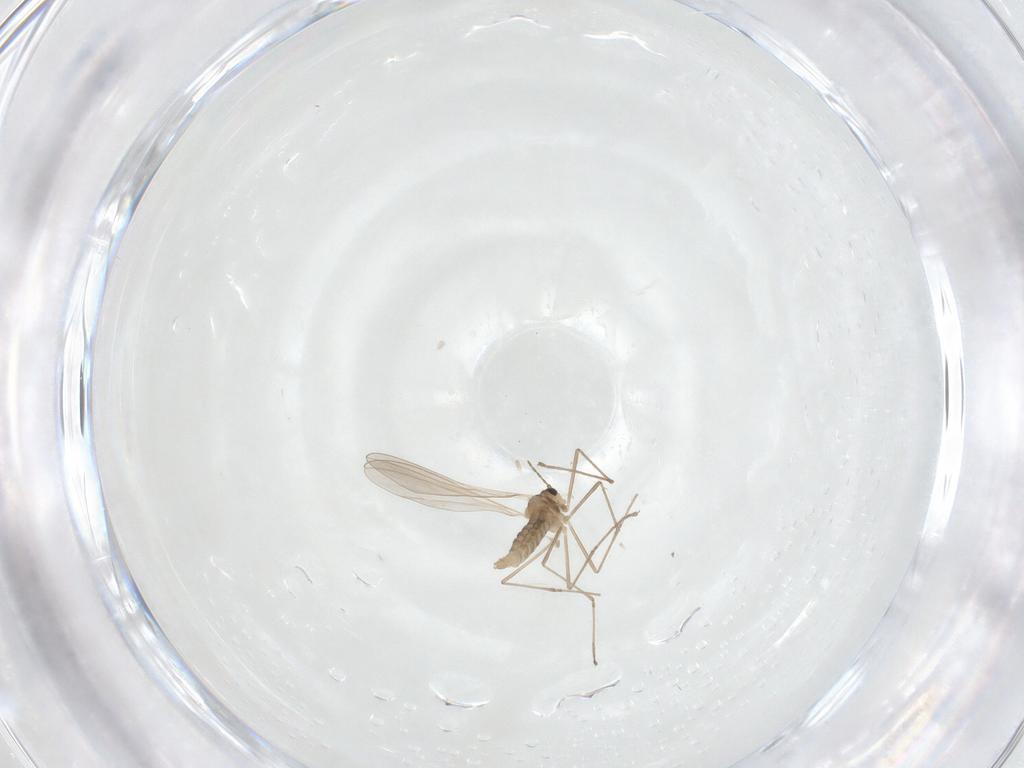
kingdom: Animalia
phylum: Arthropoda
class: Insecta
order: Diptera
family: Cecidomyiidae
